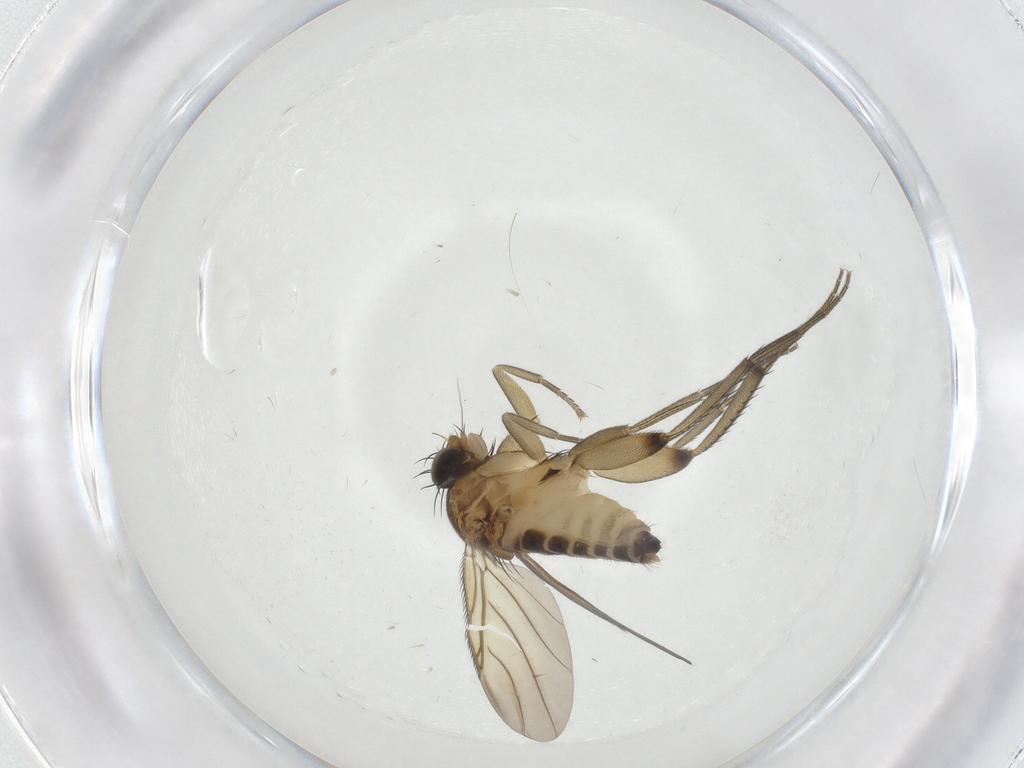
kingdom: Animalia
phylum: Arthropoda
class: Insecta
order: Diptera
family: Phoridae
